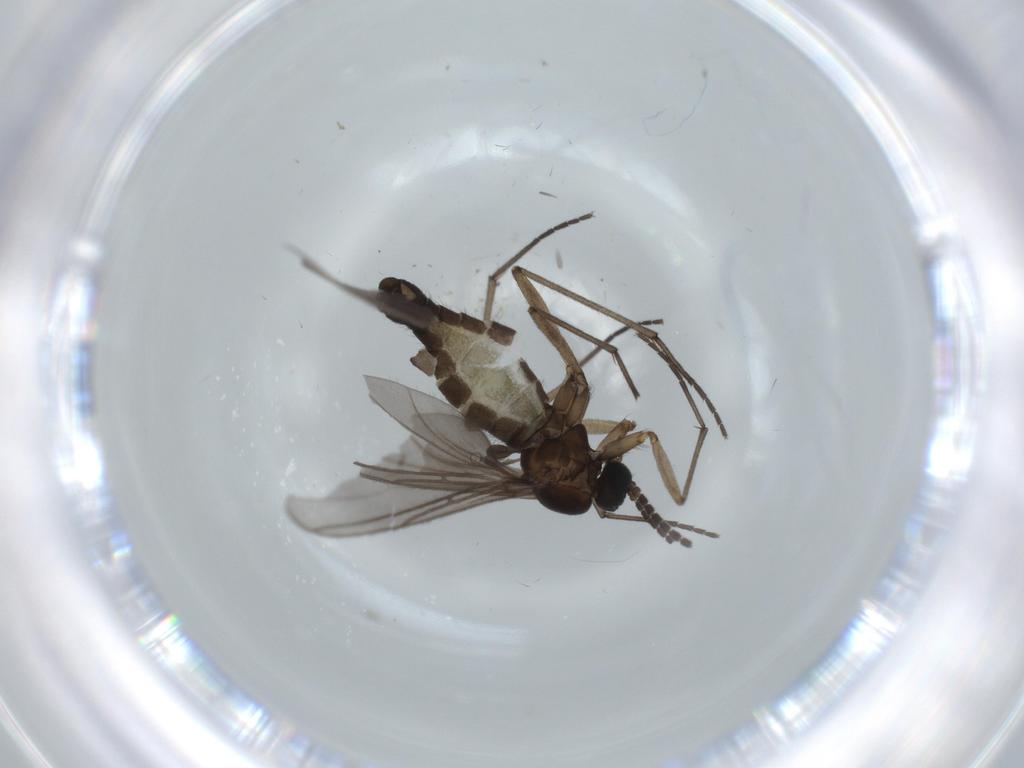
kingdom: Animalia
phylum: Arthropoda
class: Insecta
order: Diptera
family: Sciaridae
